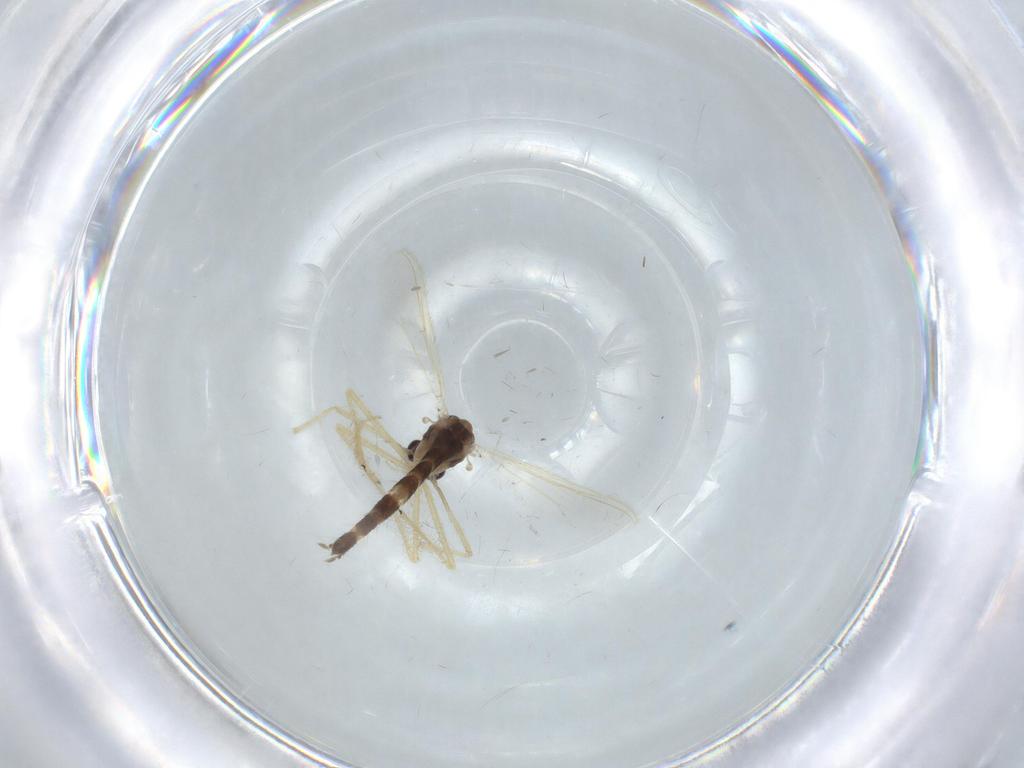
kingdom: Animalia
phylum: Arthropoda
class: Insecta
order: Diptera
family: Chironomidae
